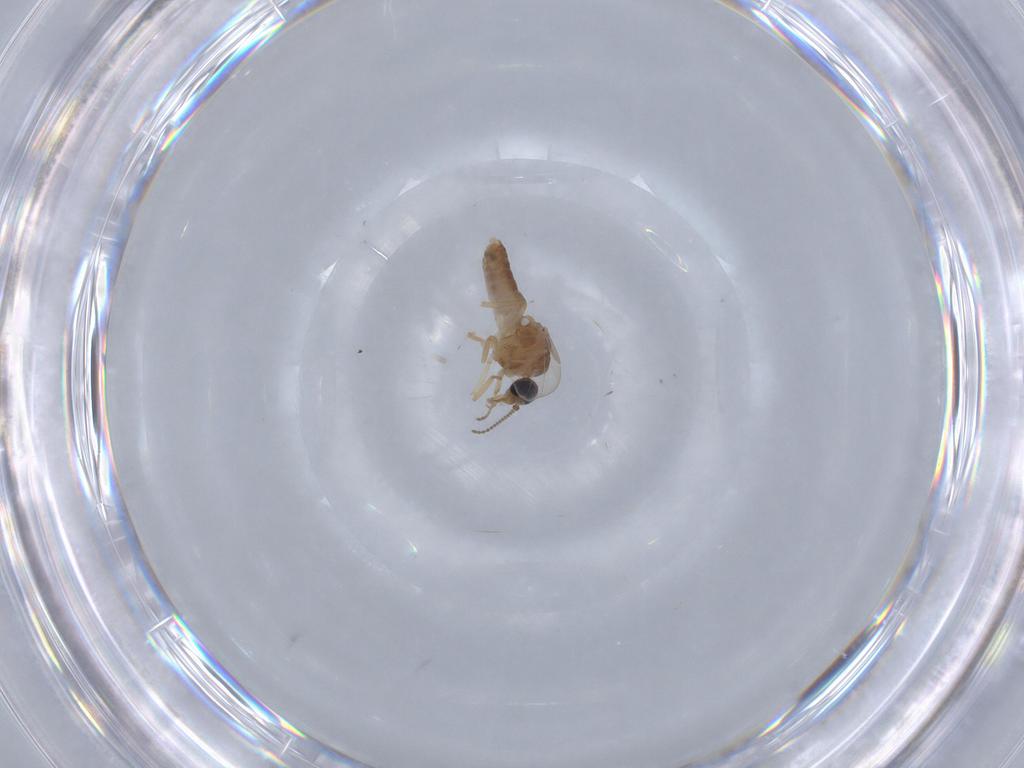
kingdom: Animalia
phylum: Arthropoda
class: Insecta
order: Diptera
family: Ceratopogonidae
